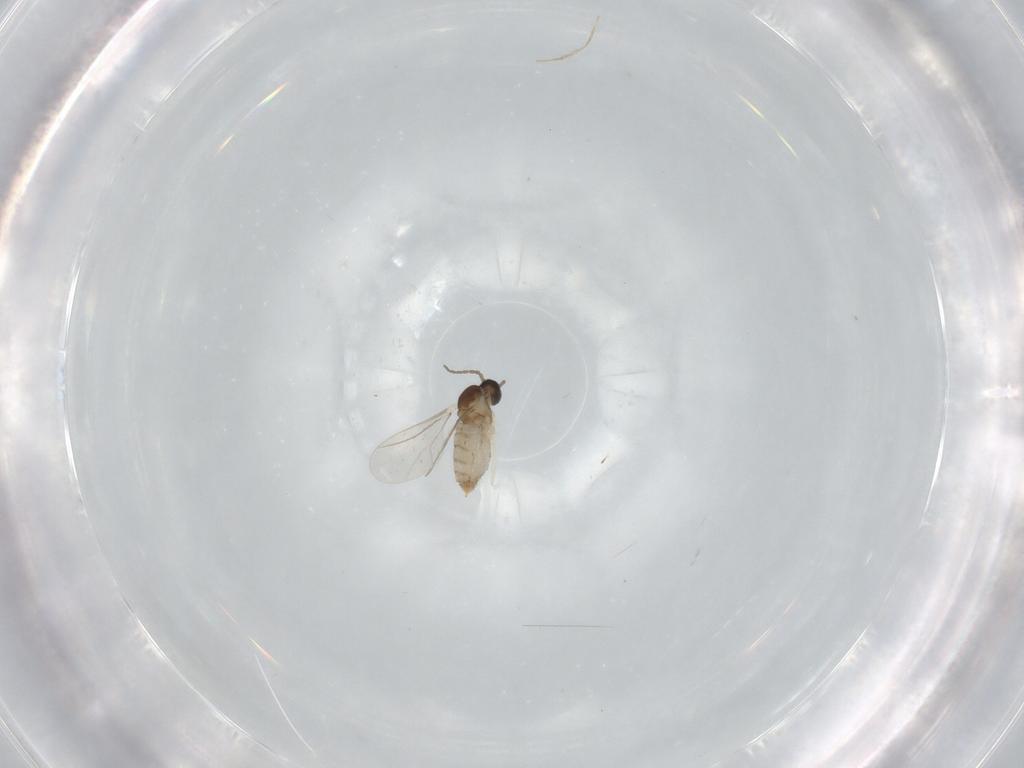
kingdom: Animalia
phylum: Arthropoda
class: Insecta
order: Diptera
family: Cecidomyiidae
